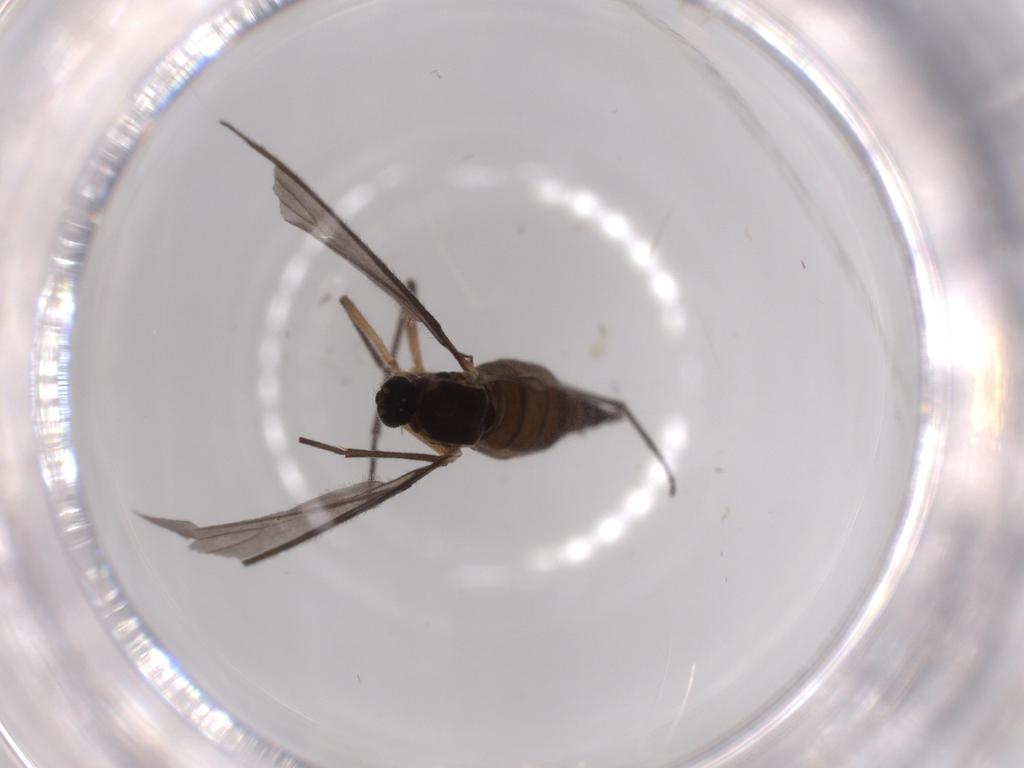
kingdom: Animalia
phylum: Arthropoda
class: Insecta
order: Diptera
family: Sciaridae
